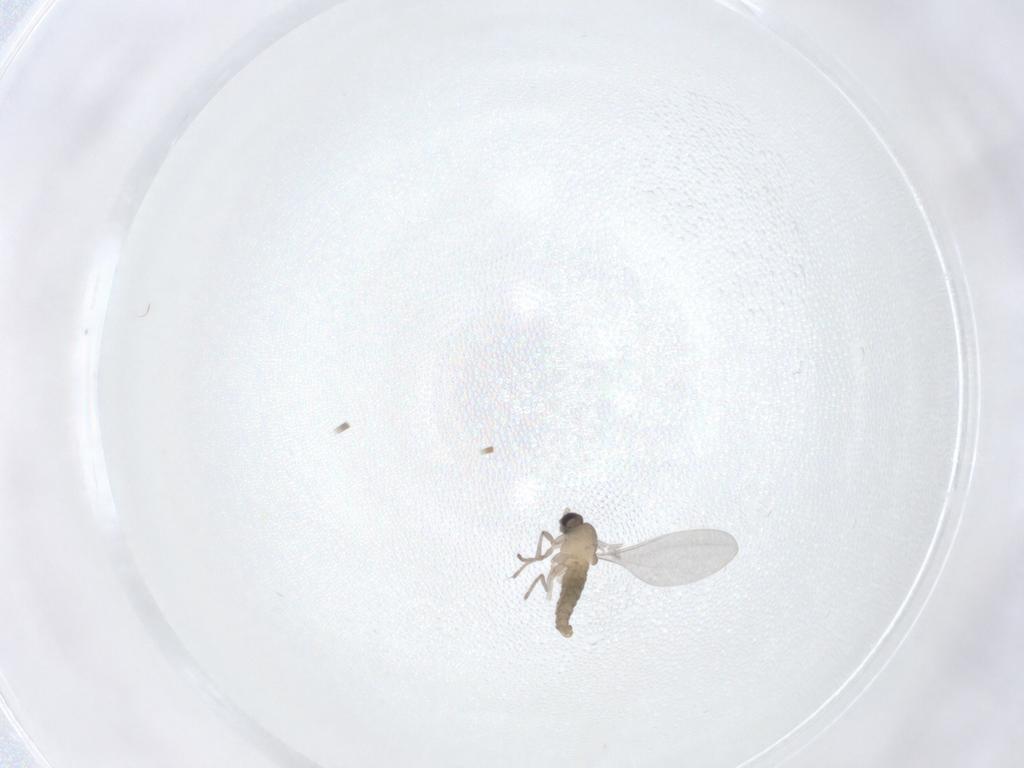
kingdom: Animalia
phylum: Arthropoda
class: Insecta
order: Diptera
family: Cecidomyiidae
